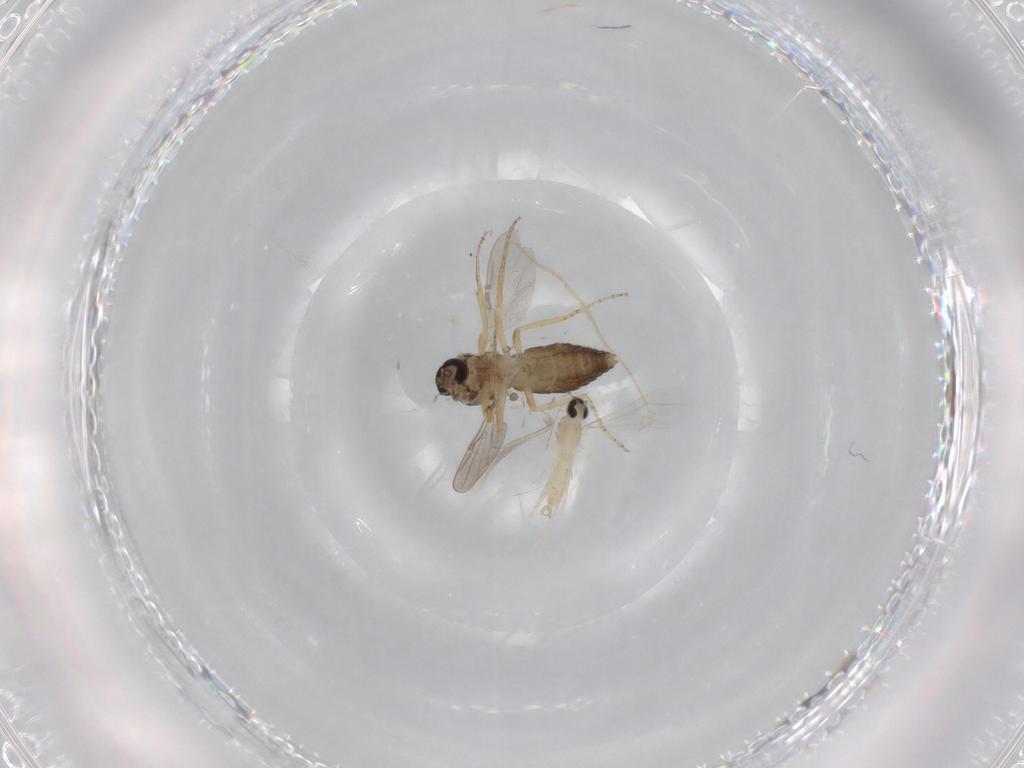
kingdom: Animalia
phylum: Arthropoda
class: Insecta
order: Diptera
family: Ceratopogonidae
